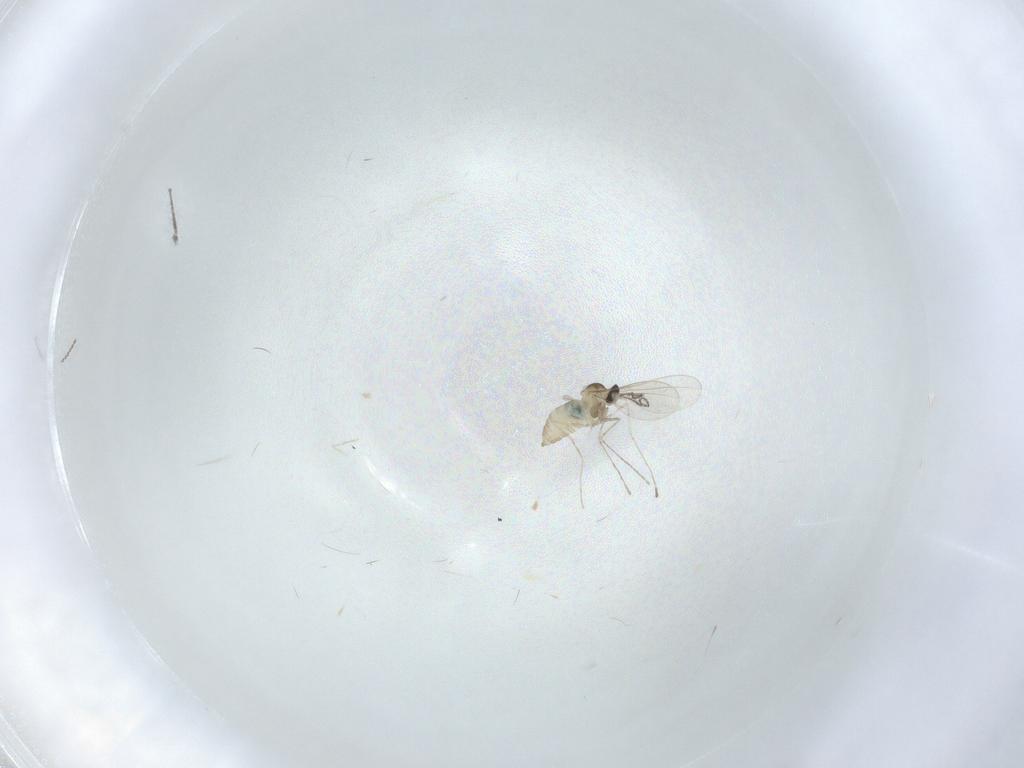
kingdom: Animalia
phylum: Arthropoda
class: Insecta
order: Diptera
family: Cecidomyiidae
